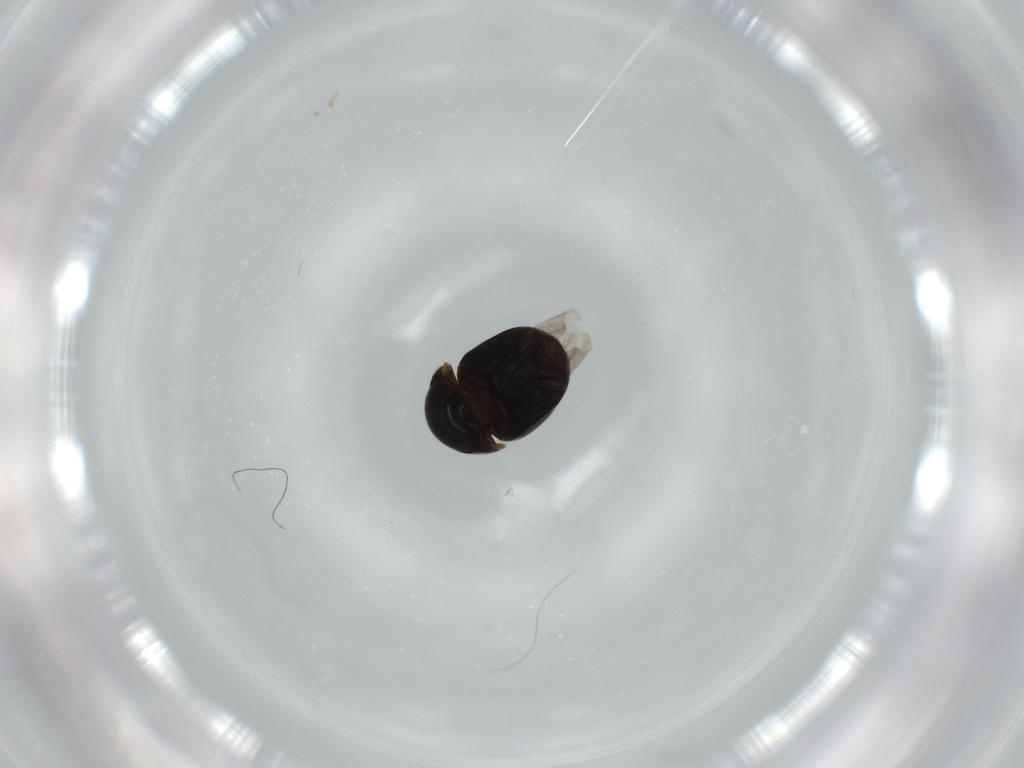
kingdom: Animalia
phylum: Arthropoda
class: Insecta
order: Coleoptera
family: Cybocephalidae
